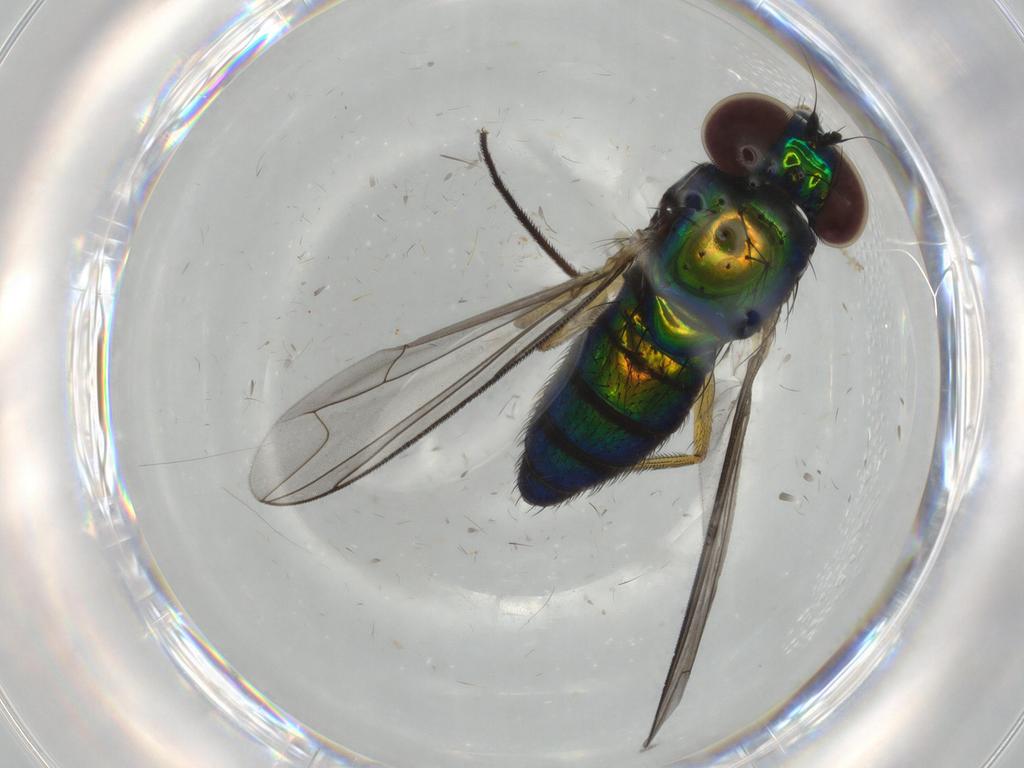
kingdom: Animalia
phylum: Arthropoda
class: Insecta
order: Diptera
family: Dolichopodidae
